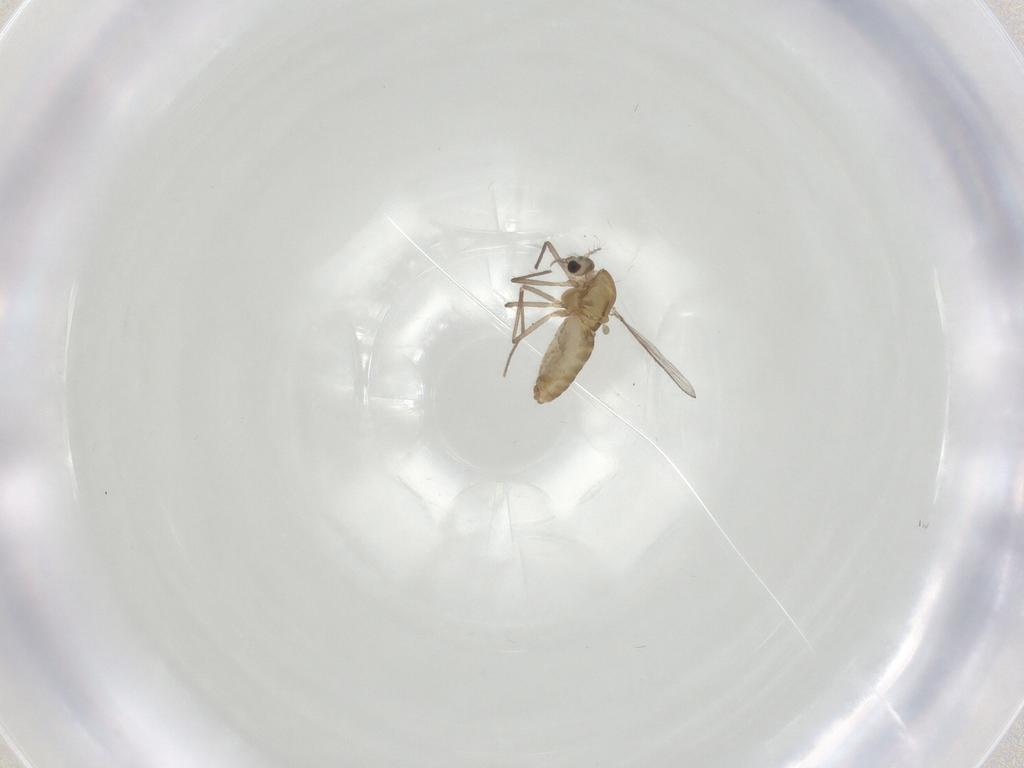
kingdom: Animalia
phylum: Arthropoda
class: Insecta
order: Diptera
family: Chironomidae
